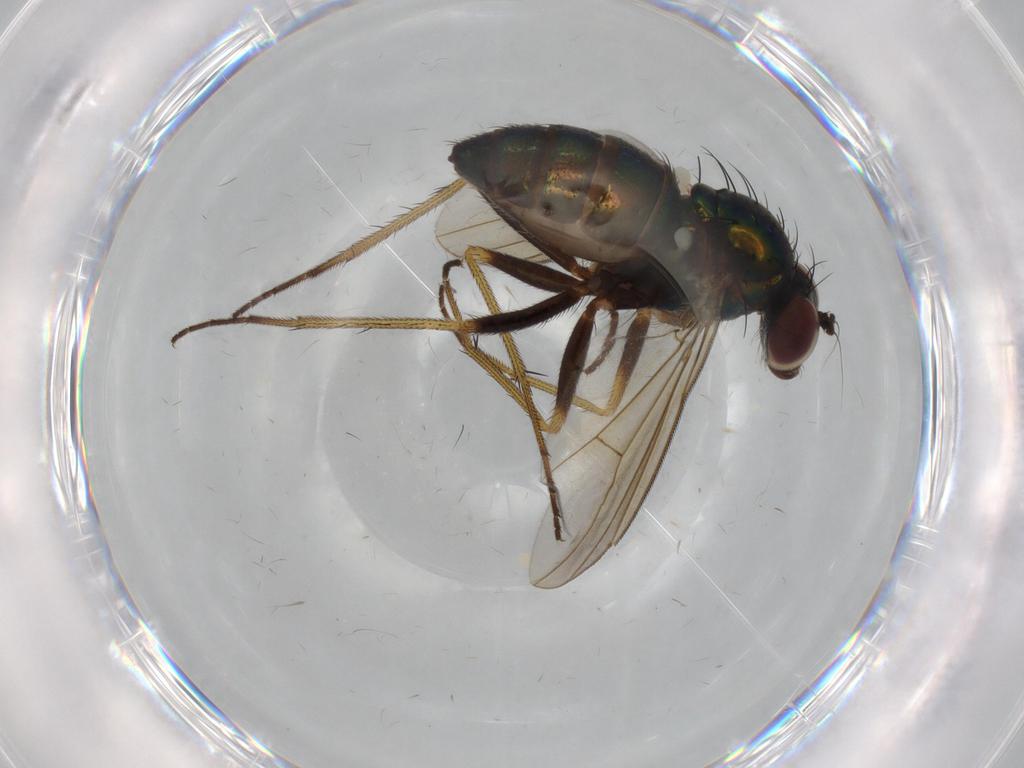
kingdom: Animalia
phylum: Arthropoda
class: Insecta
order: Diptera
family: Dolichopodidae
